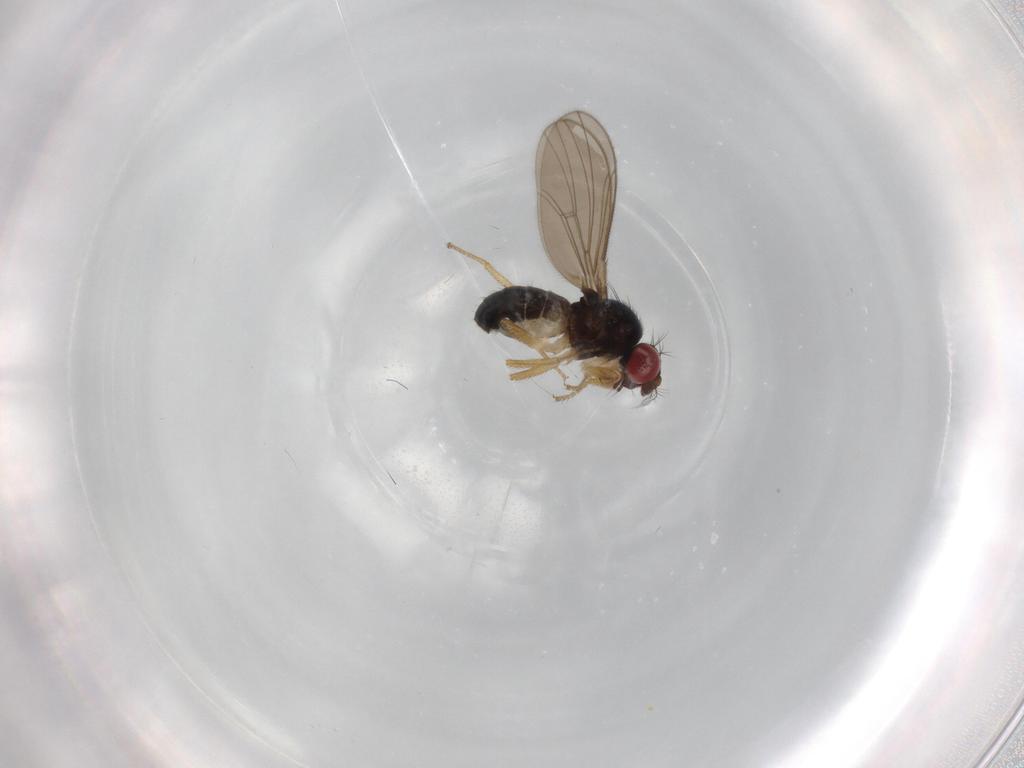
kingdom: Animalia
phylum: Arthropoda
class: Insecta
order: Diptera
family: Drosophilidae
